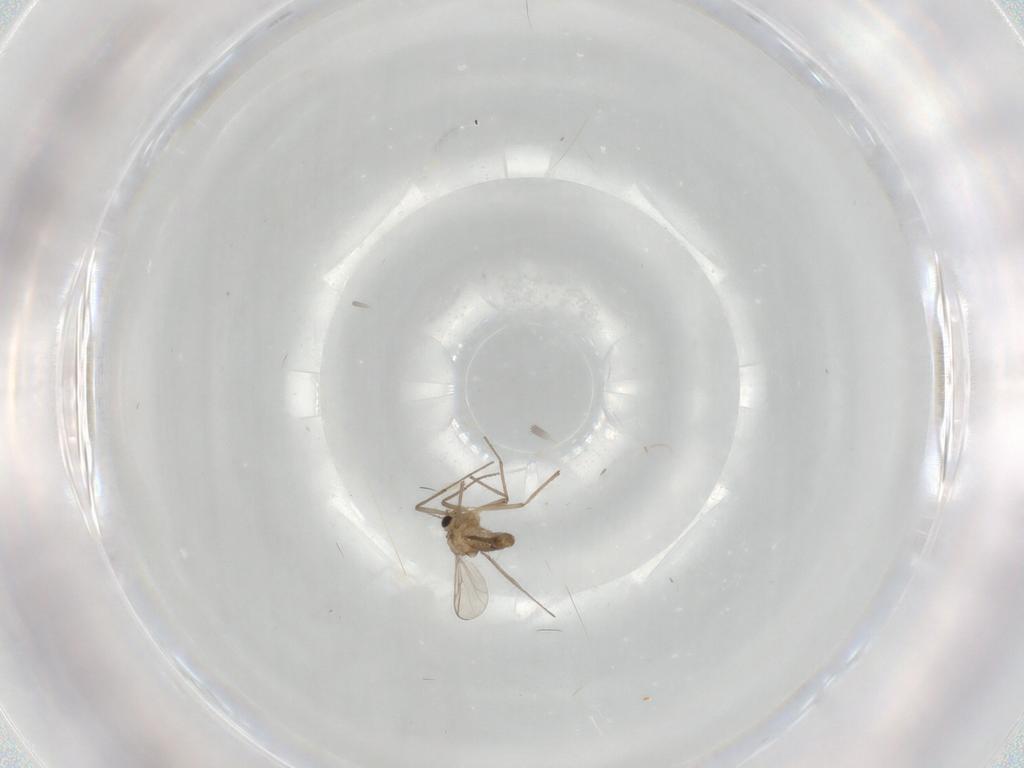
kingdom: Animalia
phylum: Arthropoda
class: Insecta
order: Diptera
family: Chironomidae
